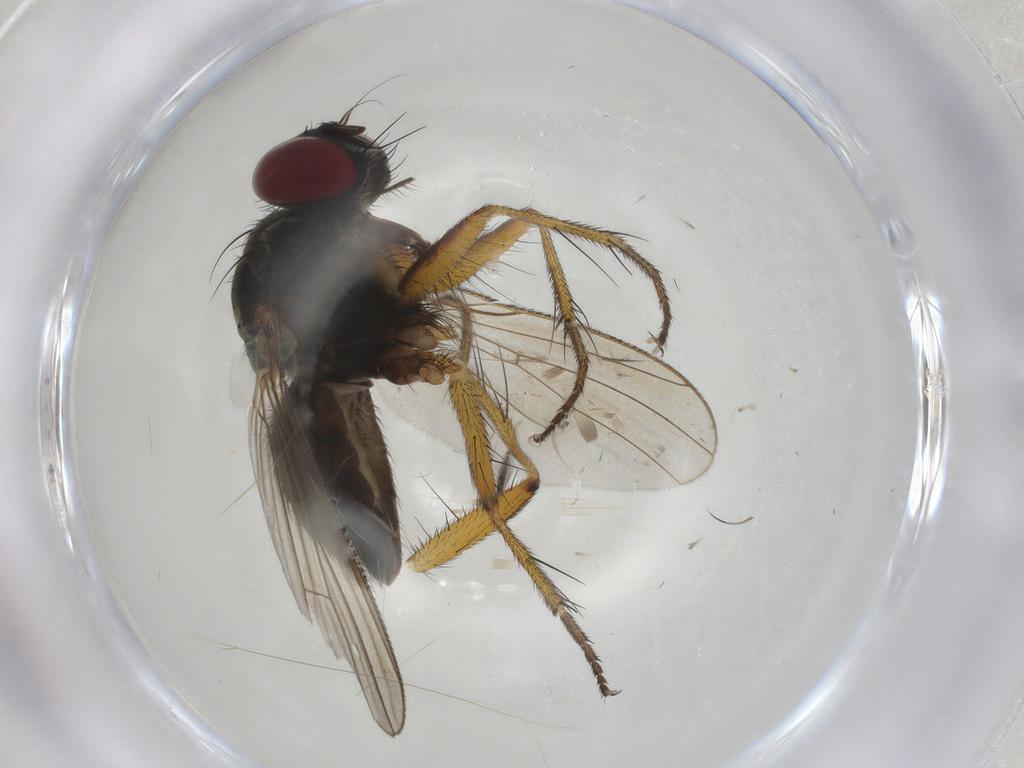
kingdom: Animalia
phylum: Arthropoda
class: Insecta
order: Diptera
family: Muscidae
